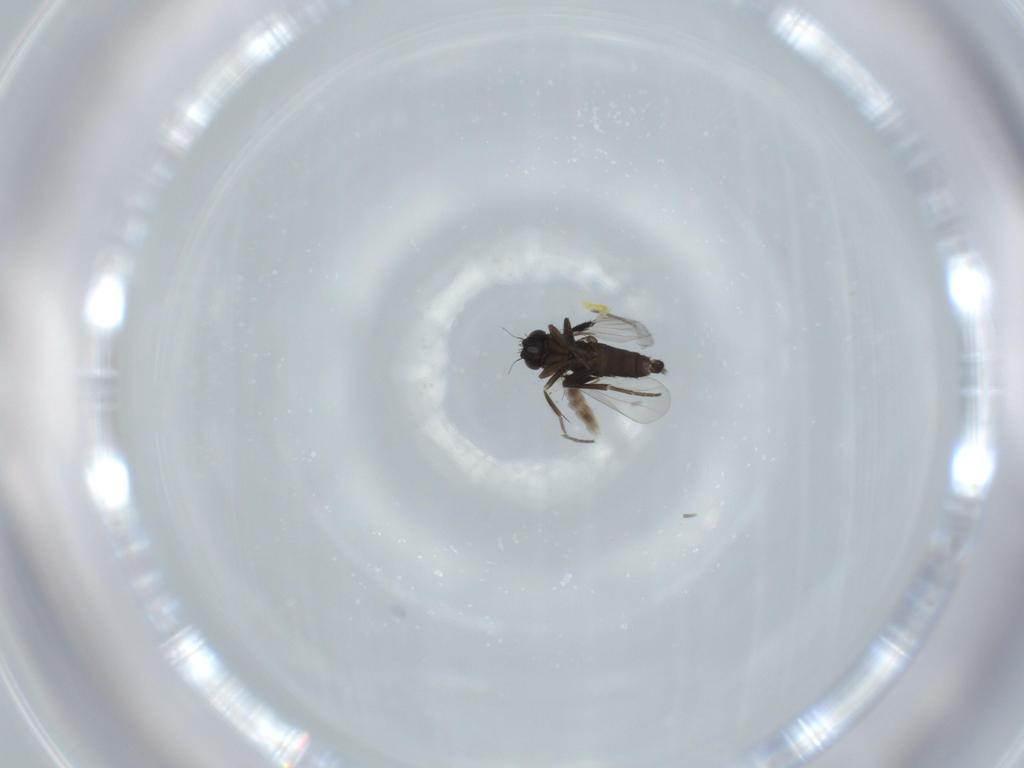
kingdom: Animalia
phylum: Arthropoda
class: Insecta
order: Diptera
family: Phoridae
